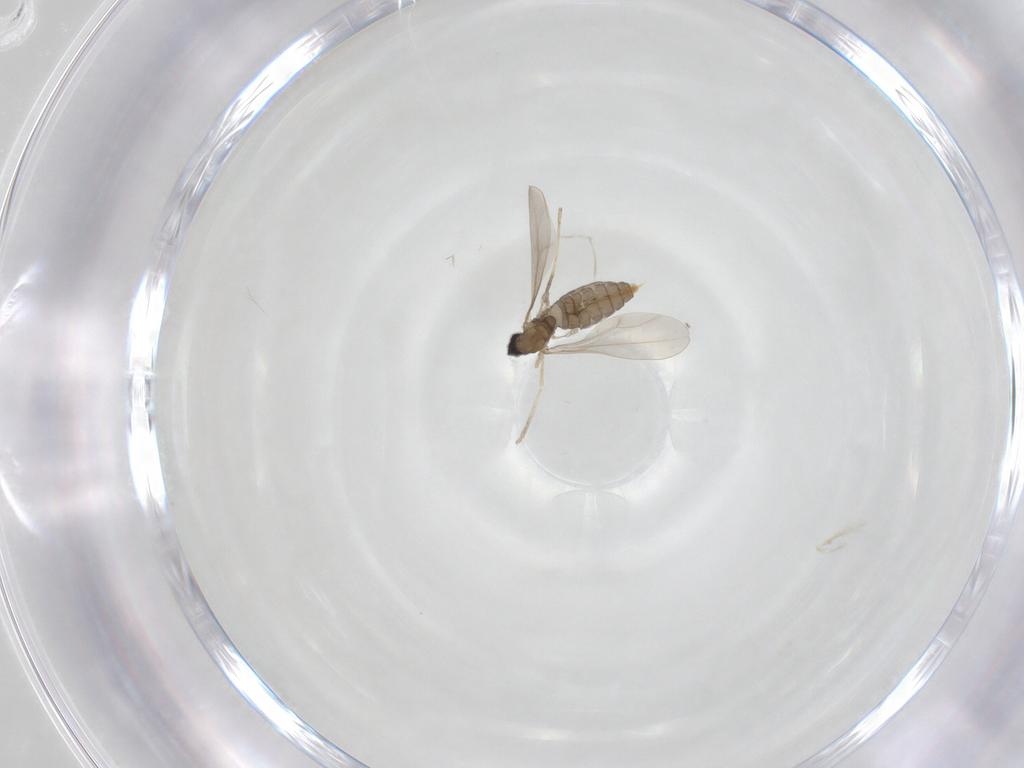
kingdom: Animalia
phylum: Arthropoda
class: Insecta
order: Diptera
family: Cecidomyiidae
